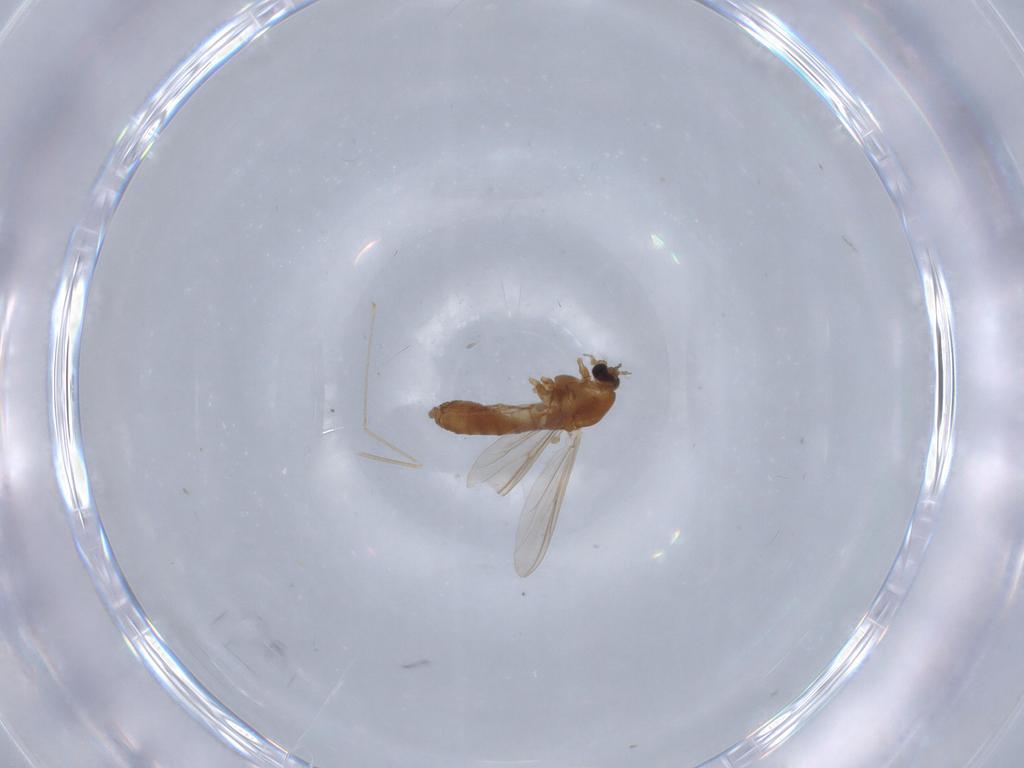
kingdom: Animalia
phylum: Arthropoda
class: Insecta
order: Diptera
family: Chironomidae
